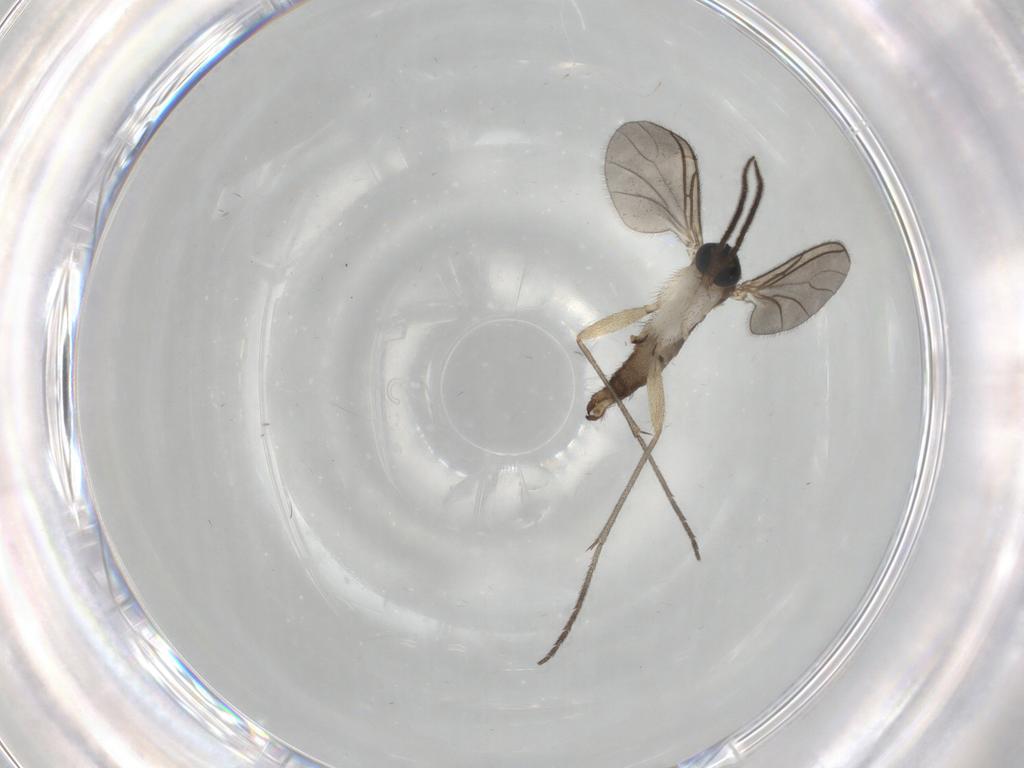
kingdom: Animalia
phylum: Arthropoda
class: Insecta
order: Diptera
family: Sciaridae
